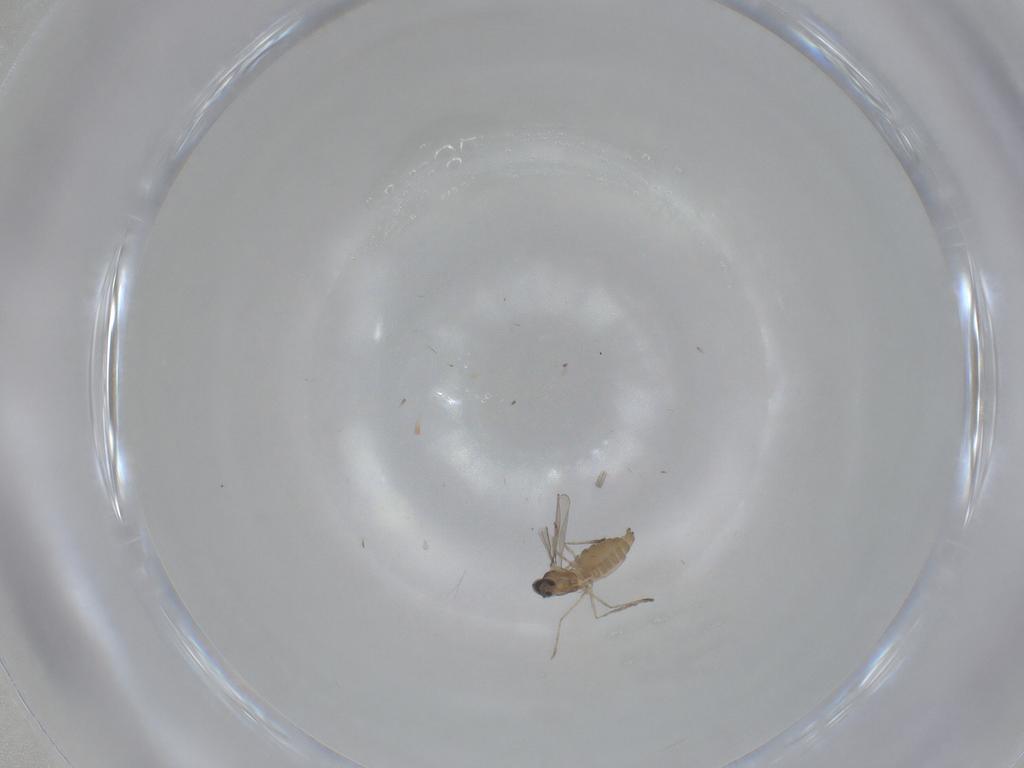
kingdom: Animalia
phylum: Arthropoda
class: Insecta
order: Diptera
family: Cecidomyiidae
